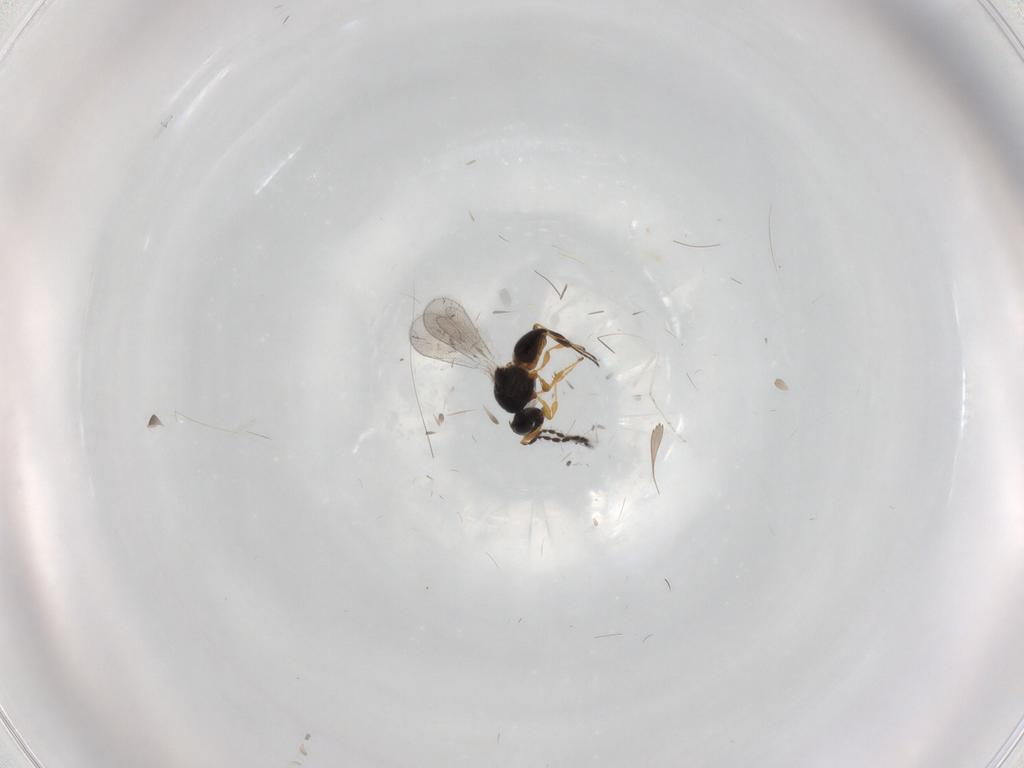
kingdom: Animalia
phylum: Arthropoda
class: Insecta
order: Hymenoptera
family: Platygastridae
